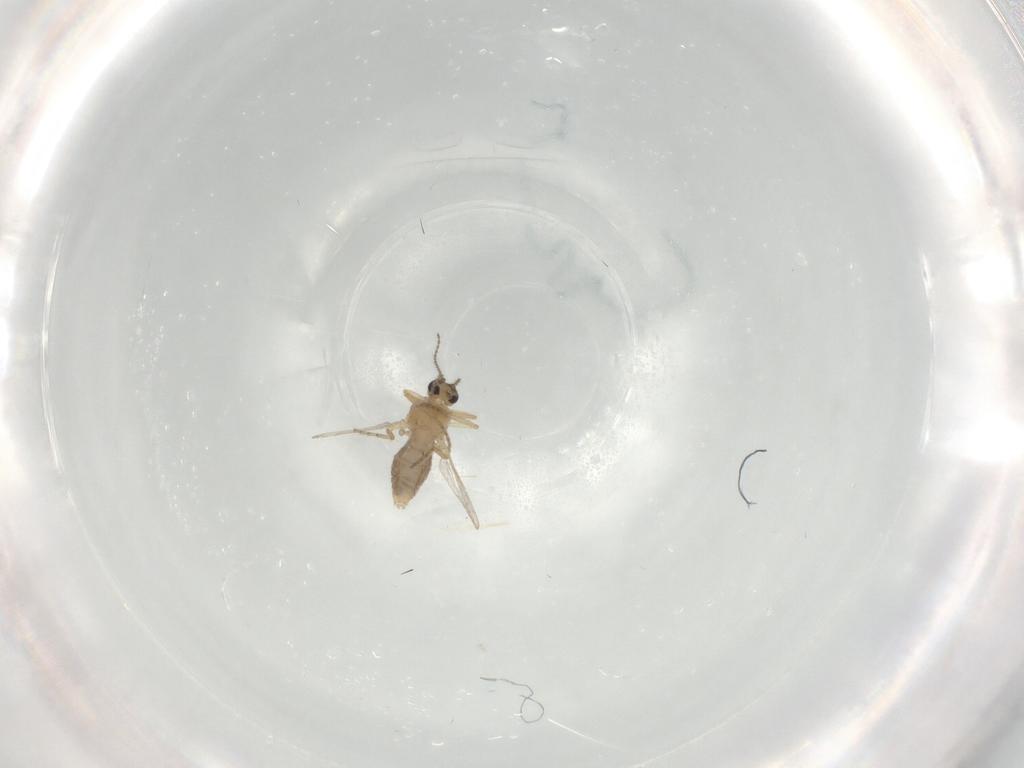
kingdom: Animalia
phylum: Arthropoda
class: Insecta
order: Diptera
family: Ceratopogonidae
